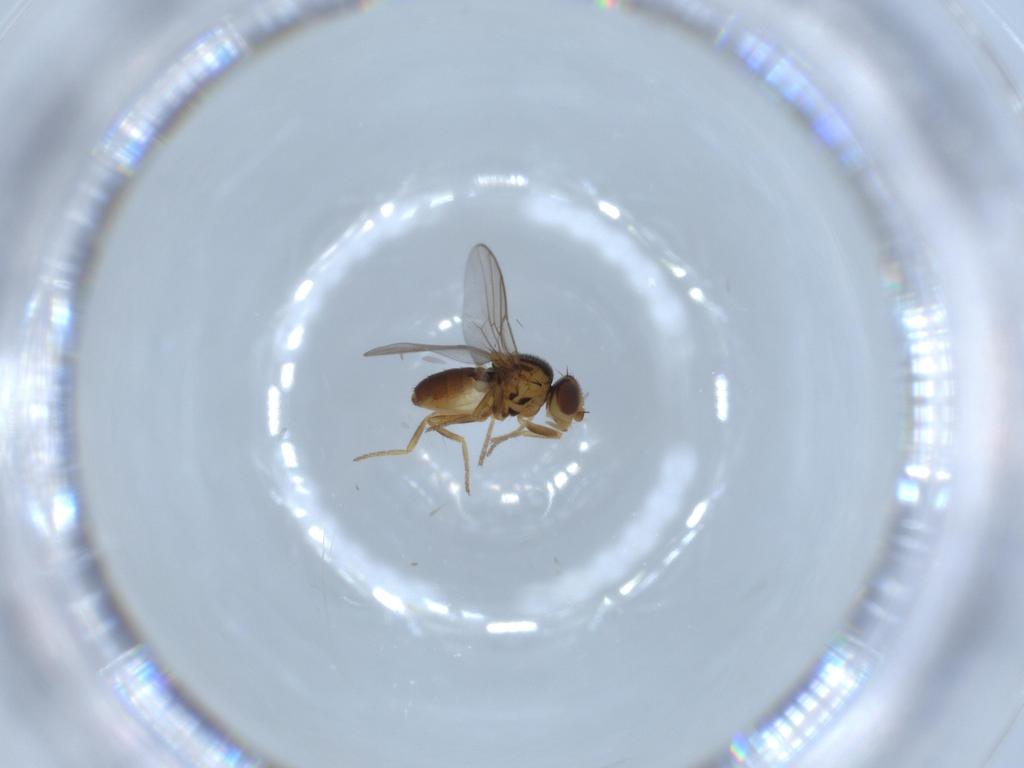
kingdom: Animalia
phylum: Arthropoda
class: Insecta
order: Diptera
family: Chloropidae
